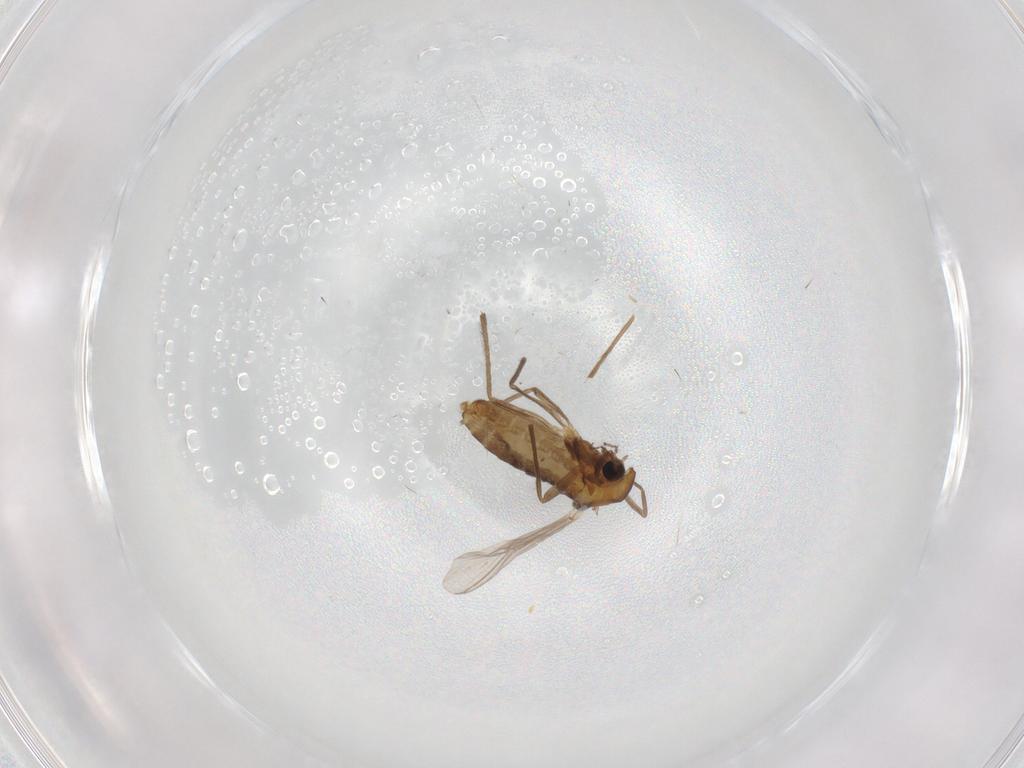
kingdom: Animalia
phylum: Arthropoda
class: Insecta
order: Diptera
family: Chironomidae
